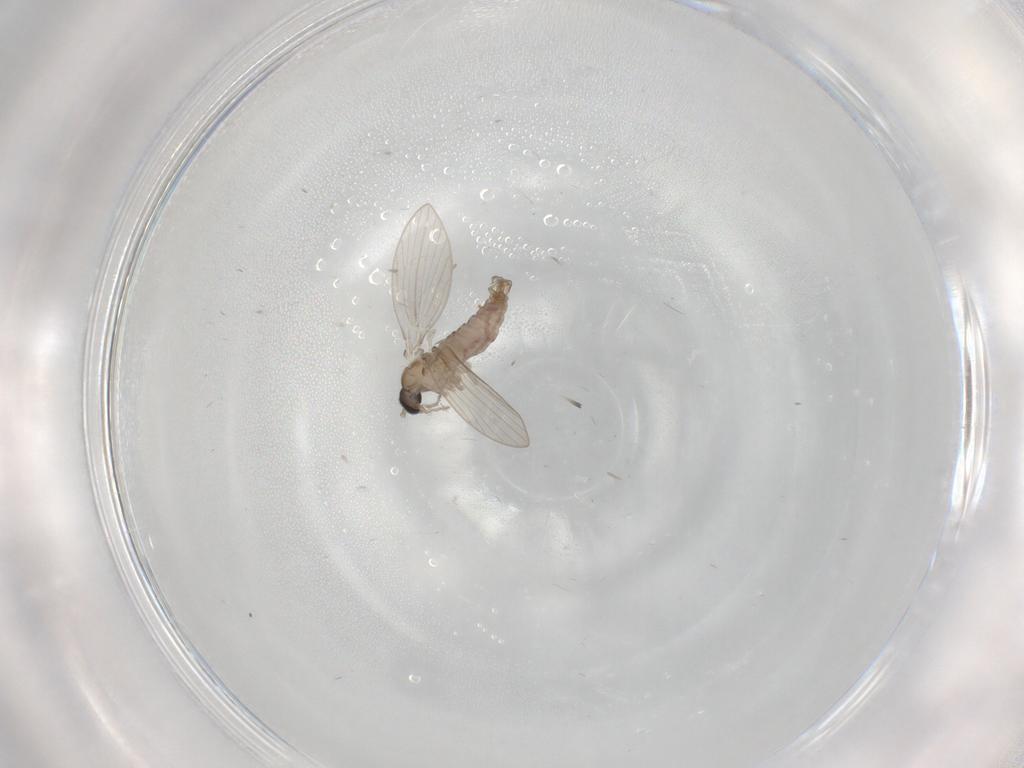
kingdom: Animalia
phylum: Arthropoda
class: Insecta
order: Diptera
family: Psychodidae
